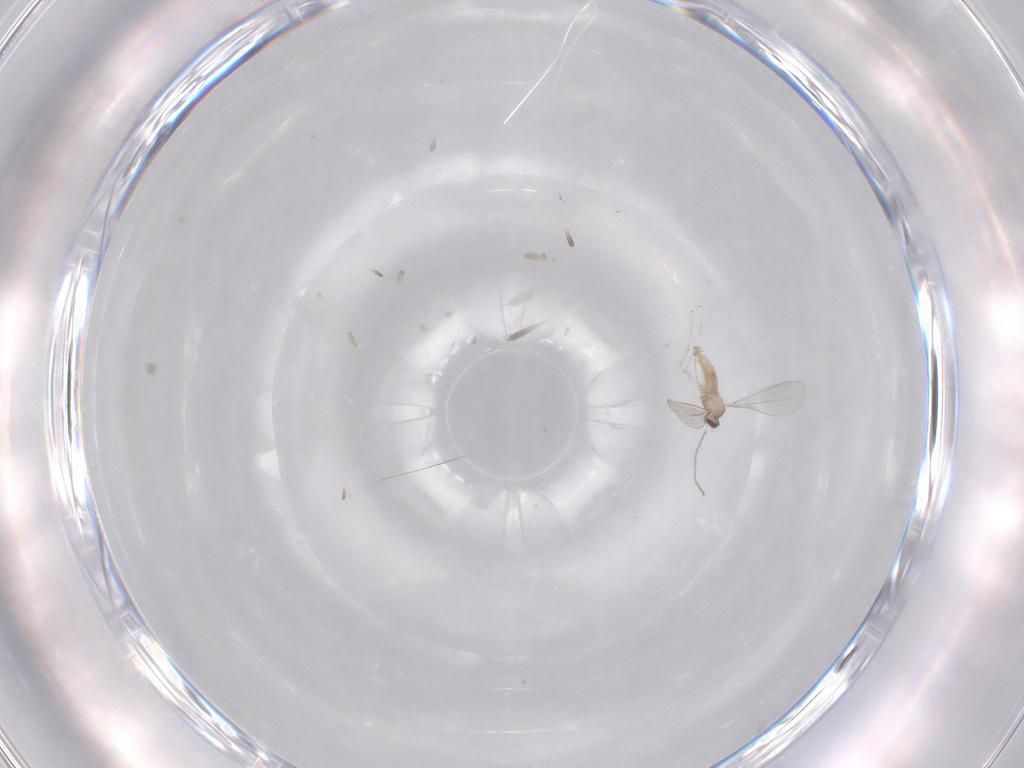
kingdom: Animalia
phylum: Arthropoda
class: Insecta
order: Diptera
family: Cecidomyiidae
